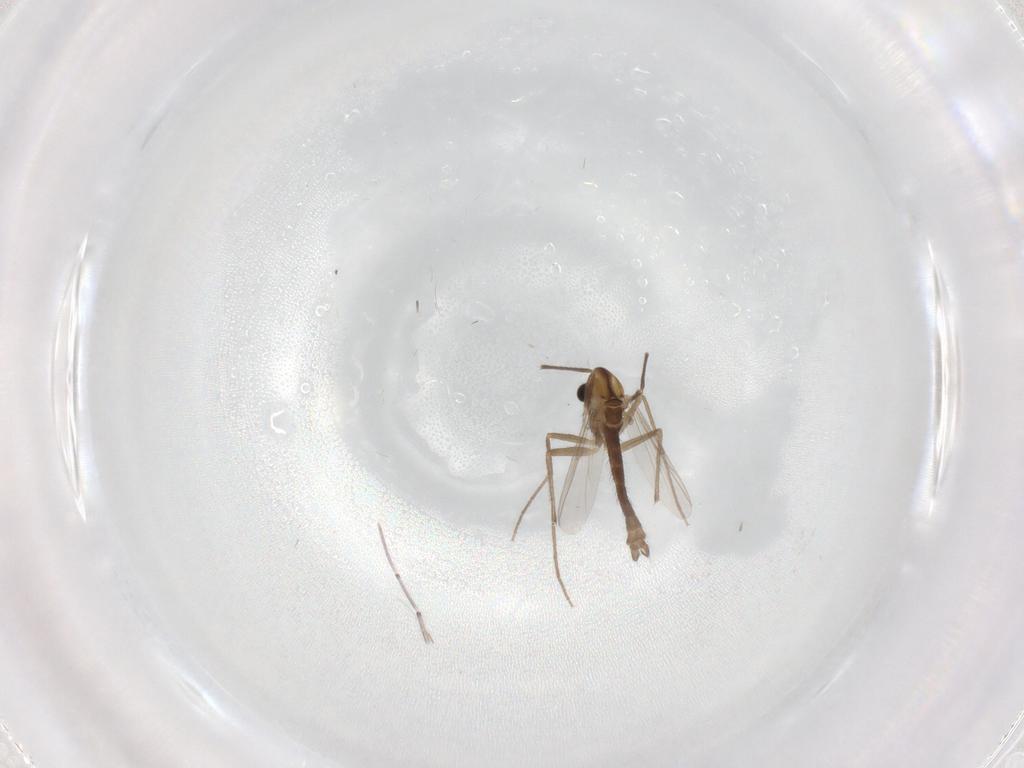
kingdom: Animalia
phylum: Arthropoda
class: Insecta
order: Diptera
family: Chironomidae
